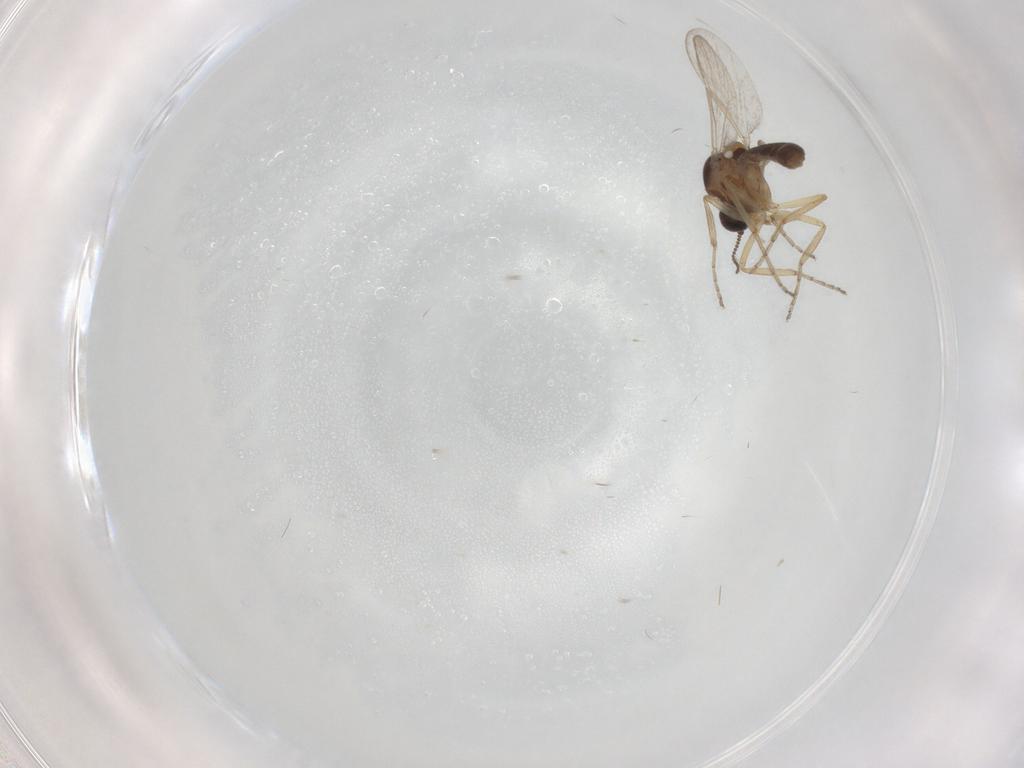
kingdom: Animalia
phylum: Arthropoda
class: Insecta
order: Diptera
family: Ceratopogonidae
